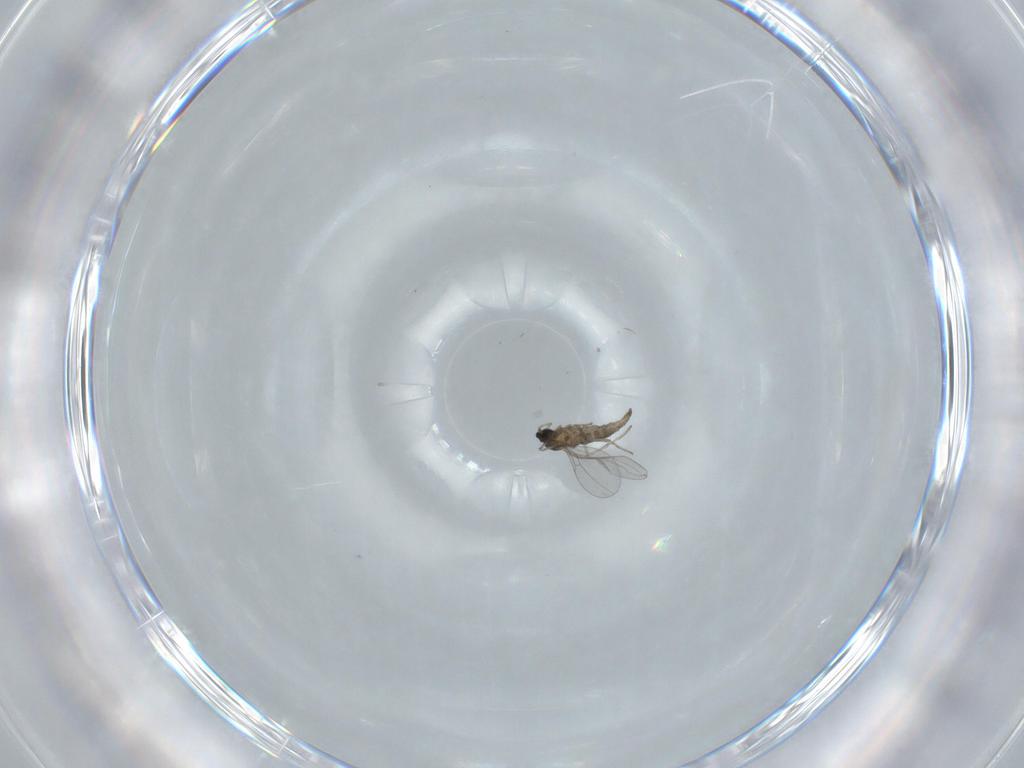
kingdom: Animalia
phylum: Arthropoda
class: Insecta
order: Diptera
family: Cecidomyiidae
